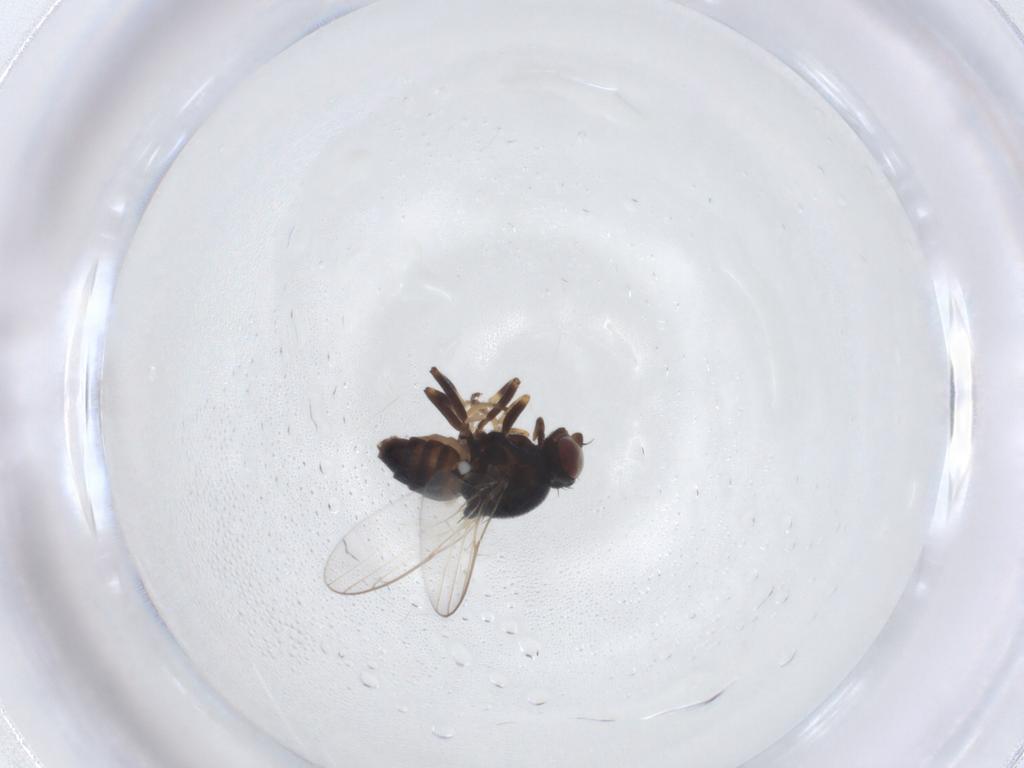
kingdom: Animalia
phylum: Arthropoda
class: Insecta
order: Diptera
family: Chloropidae
